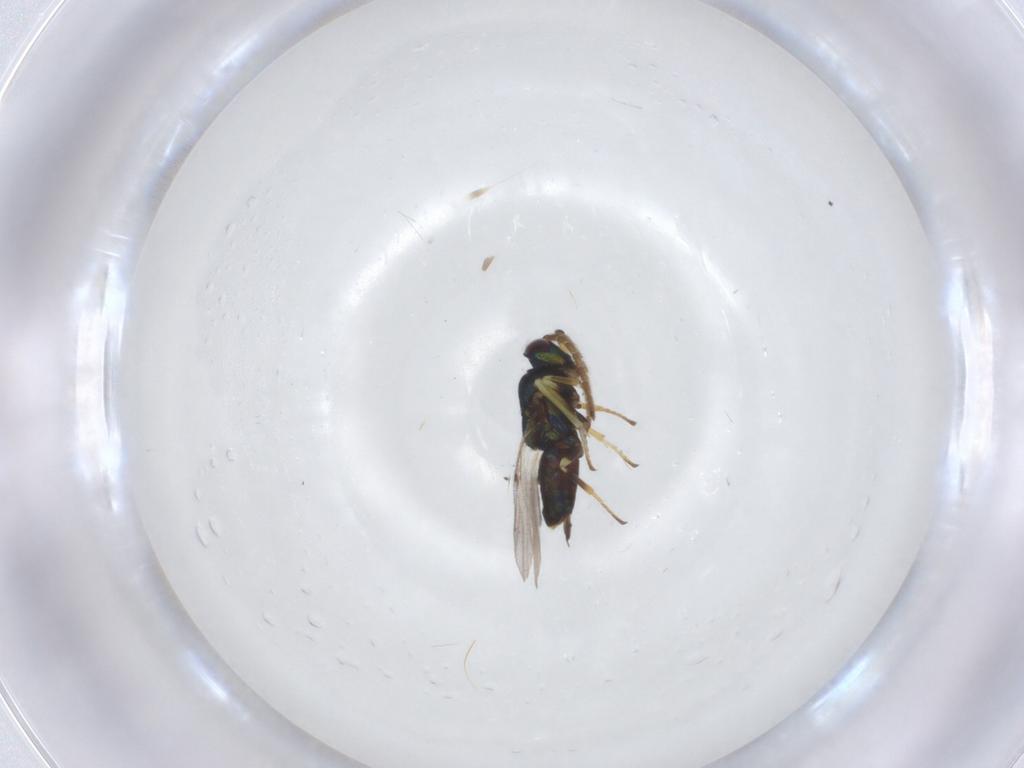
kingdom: Animalia
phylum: Arthropoda
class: Insecta
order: Hymenoptera
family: Encyrtidae
